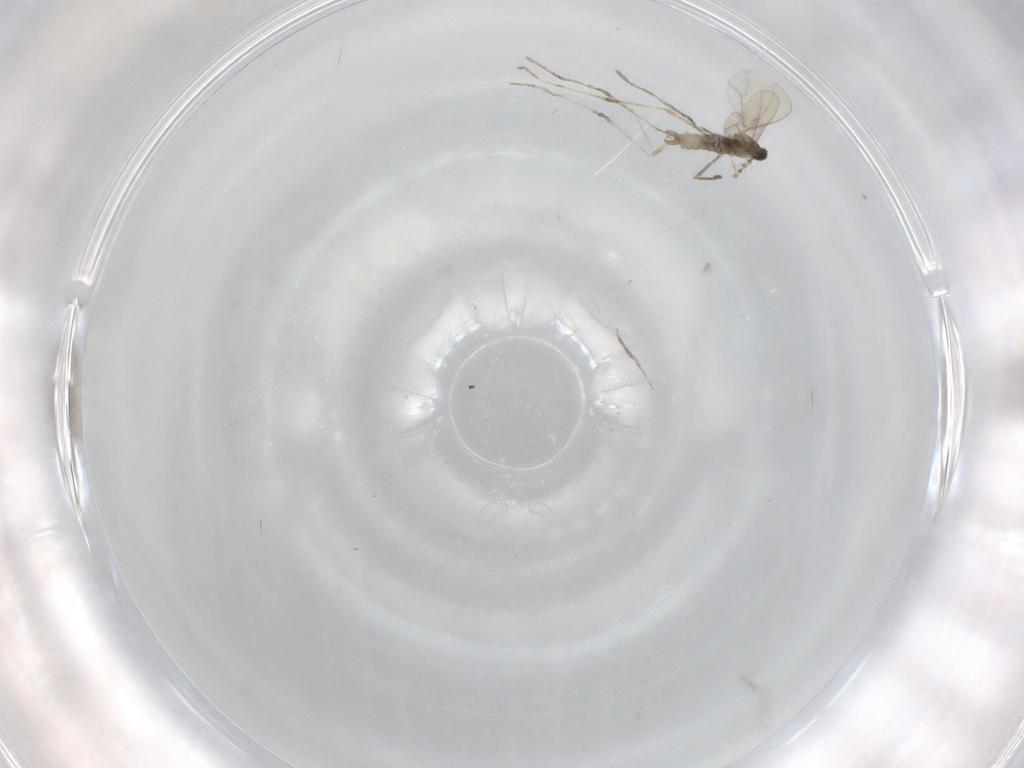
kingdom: Animalia
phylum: Arthropoda
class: Insecta
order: Diptera
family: Cecidomyiidae
